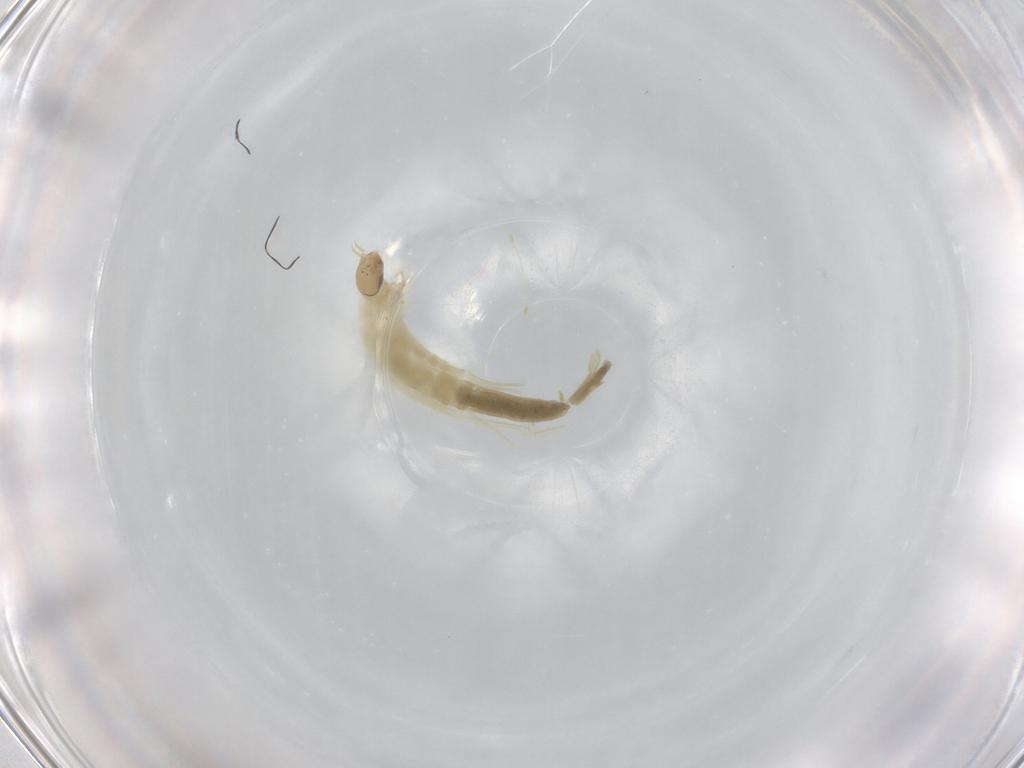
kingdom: Animalia
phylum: Arthropoda
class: Insecta
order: Diptera
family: Chironomidae
